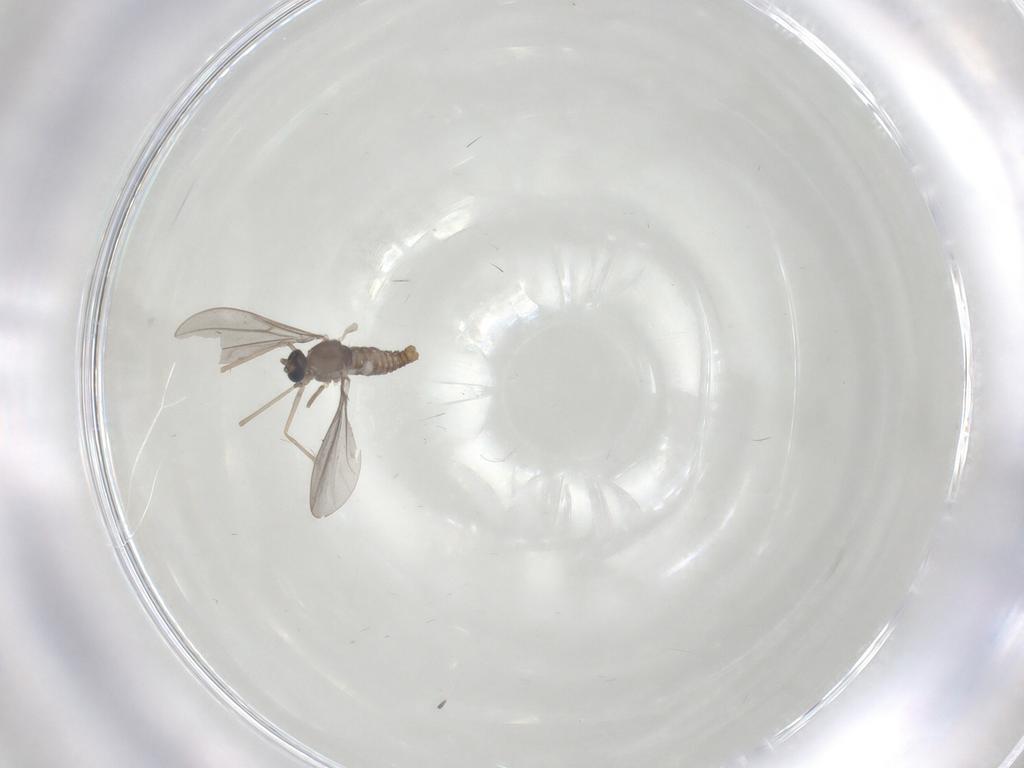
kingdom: Animalia
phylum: Arthropoda
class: Insecta
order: Diptera
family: Cecidomyiidae
